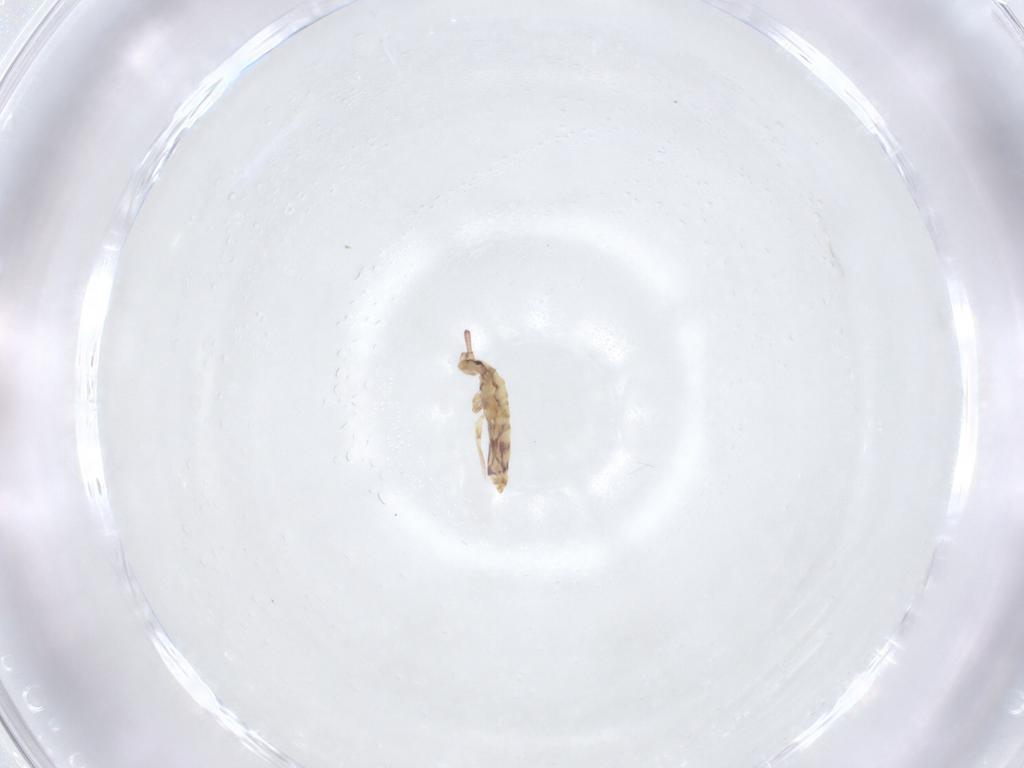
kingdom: Animalia
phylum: Arthropoda
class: Collembola
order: Entomobryomorpha
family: Entomobryidae
